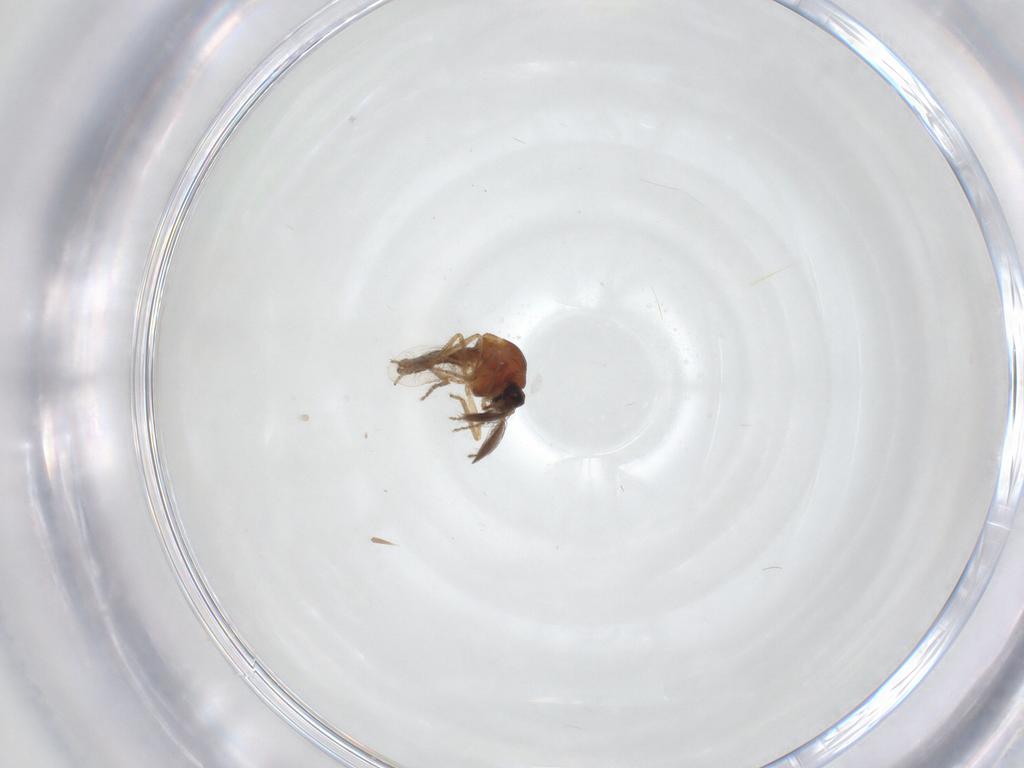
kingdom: Animalia
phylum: Arthropoda
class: Insecta
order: Diptera
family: Ceratopogonidae
